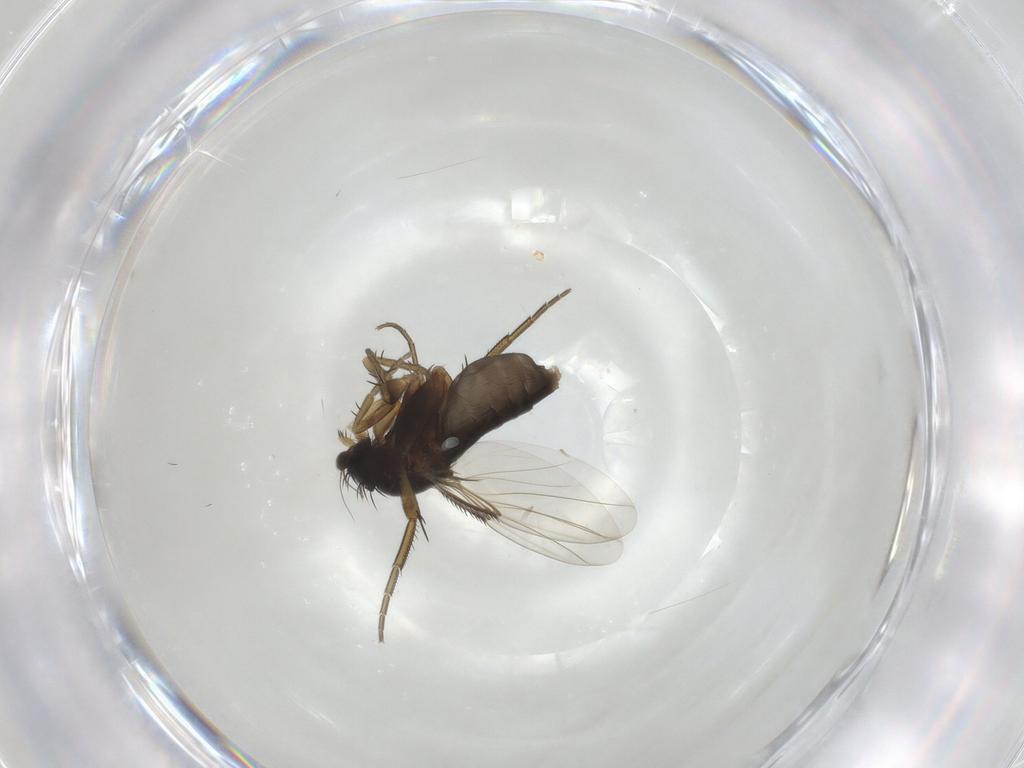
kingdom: Animalia
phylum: Arthropoda
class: Insecta
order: Diptera
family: Phoridae
